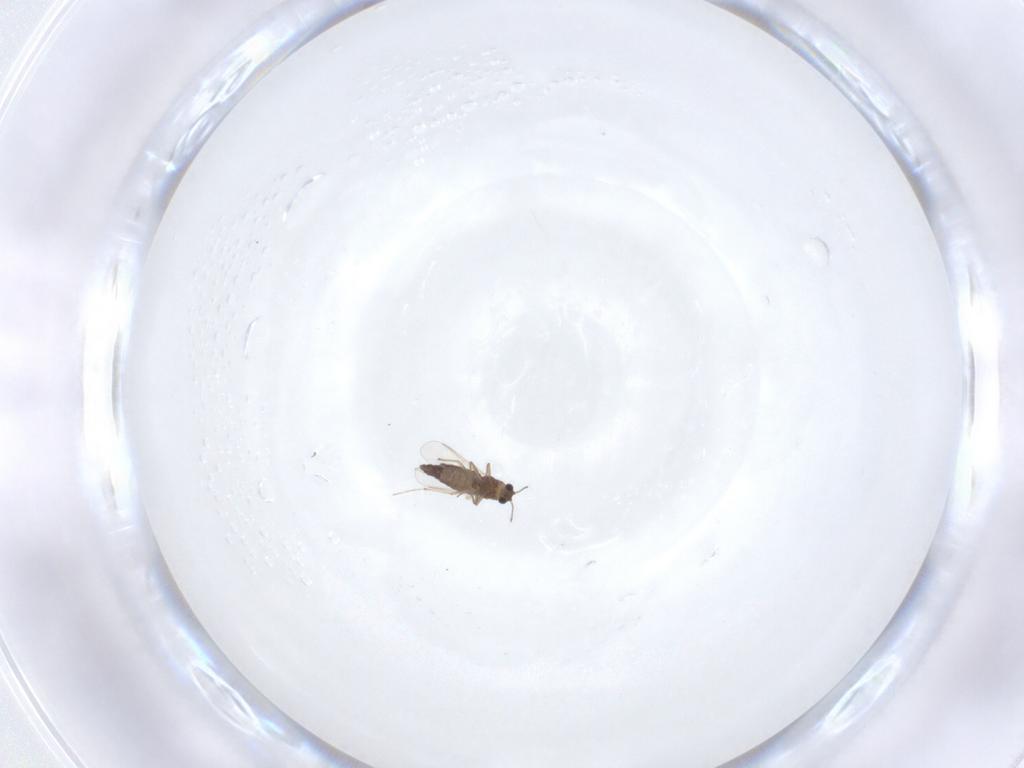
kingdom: Animalia
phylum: Arthropoda
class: Insecta
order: Diptera
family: Chironomidae
